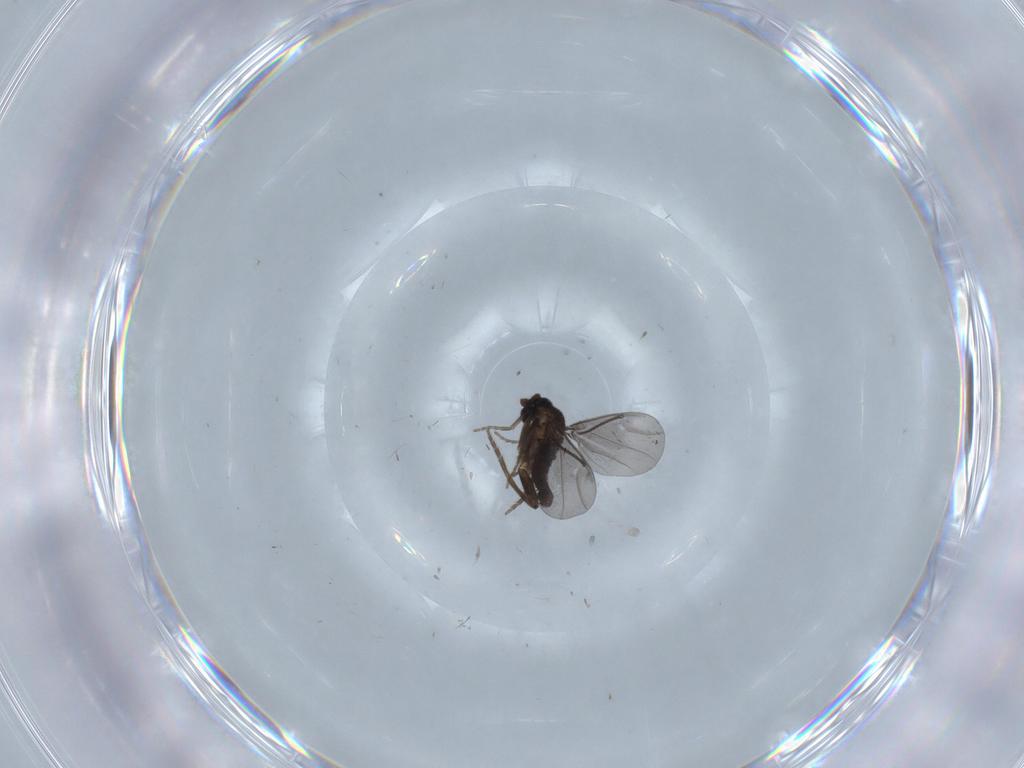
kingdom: Animalia
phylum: Arthropoda
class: Insecta
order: Diptera
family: Phoridae
